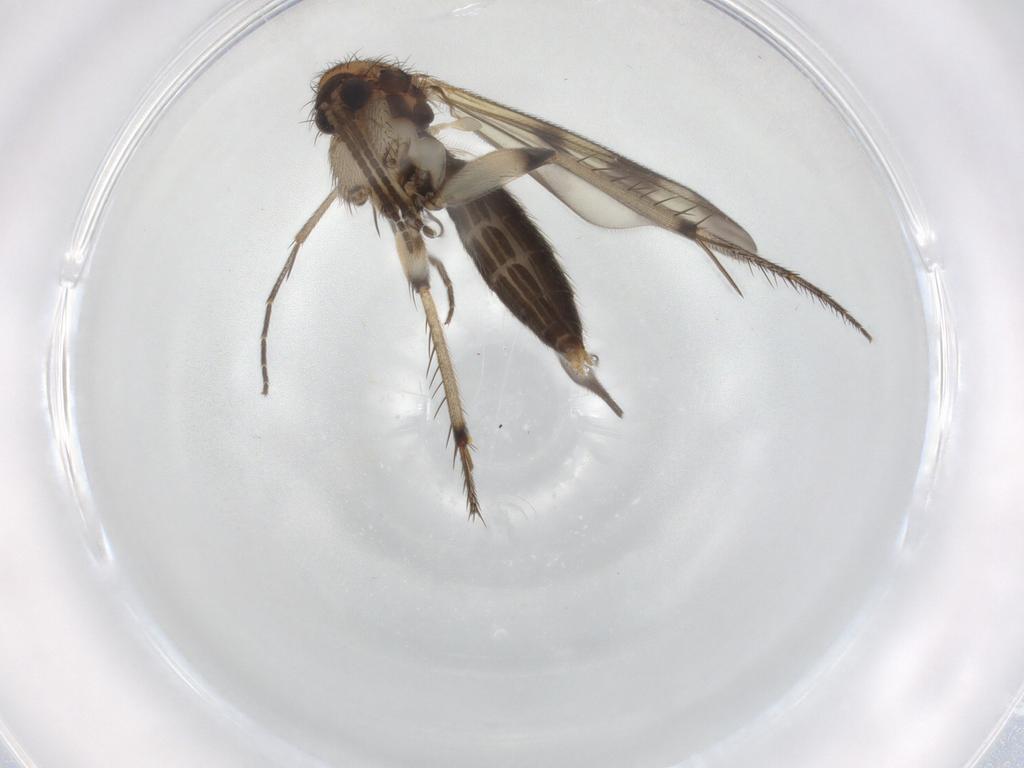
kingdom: Animalia
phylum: Arthropoda
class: Insecta
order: Diptera
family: Mycetophilidae
